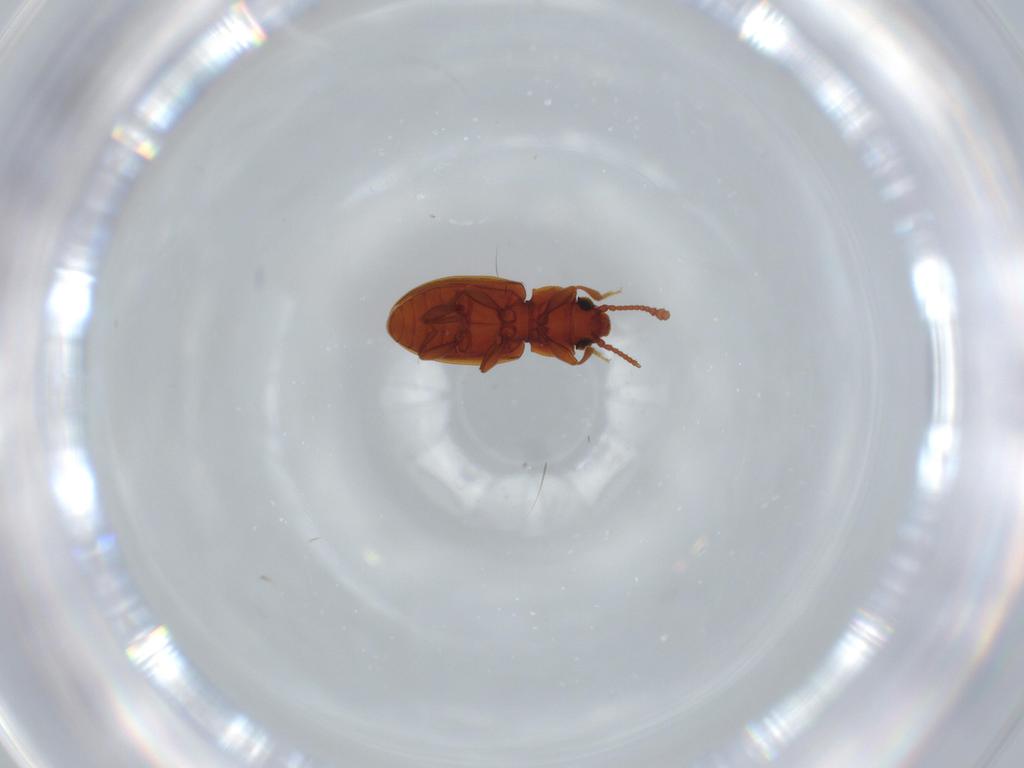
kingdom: Animalia
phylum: Arthropoda
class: Insecta
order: Coleoptera
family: Silvanidae
